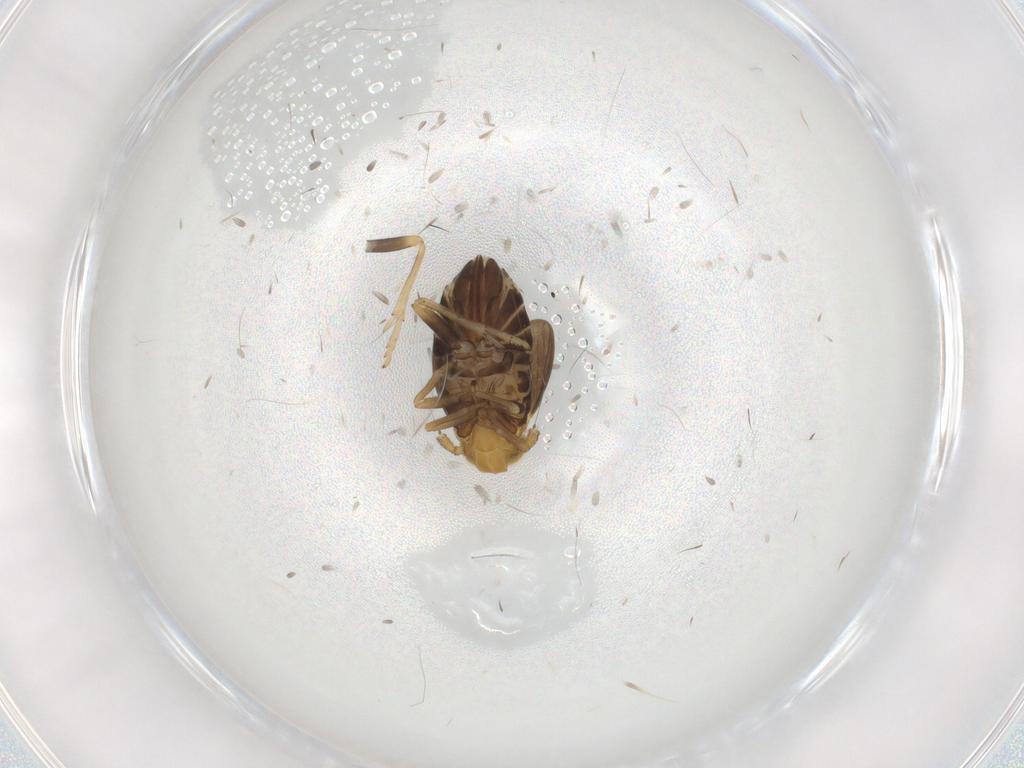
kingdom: Animalia
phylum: Arthropoda
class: Insecta
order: Hemiptera
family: Delphacidae
